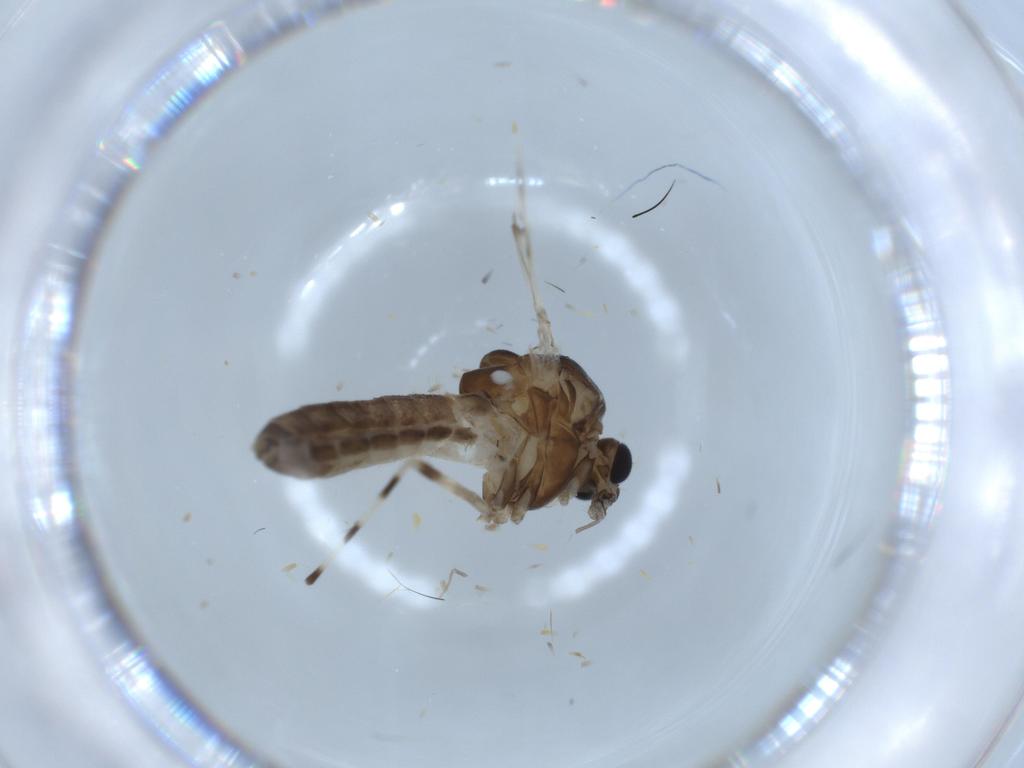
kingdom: Animalia
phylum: Arthropoda
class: Insecta
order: Diptera
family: Chironomidae
